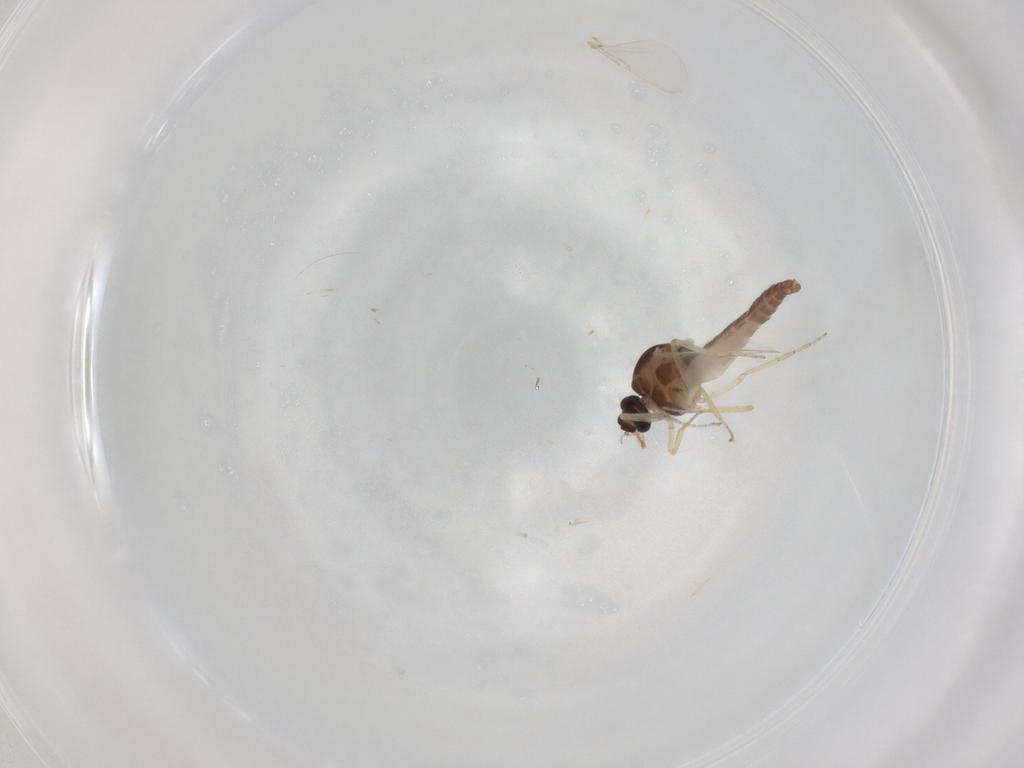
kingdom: Animalia
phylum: Arthropoda
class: Insecta
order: Diptera
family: Ceratopogonidae
